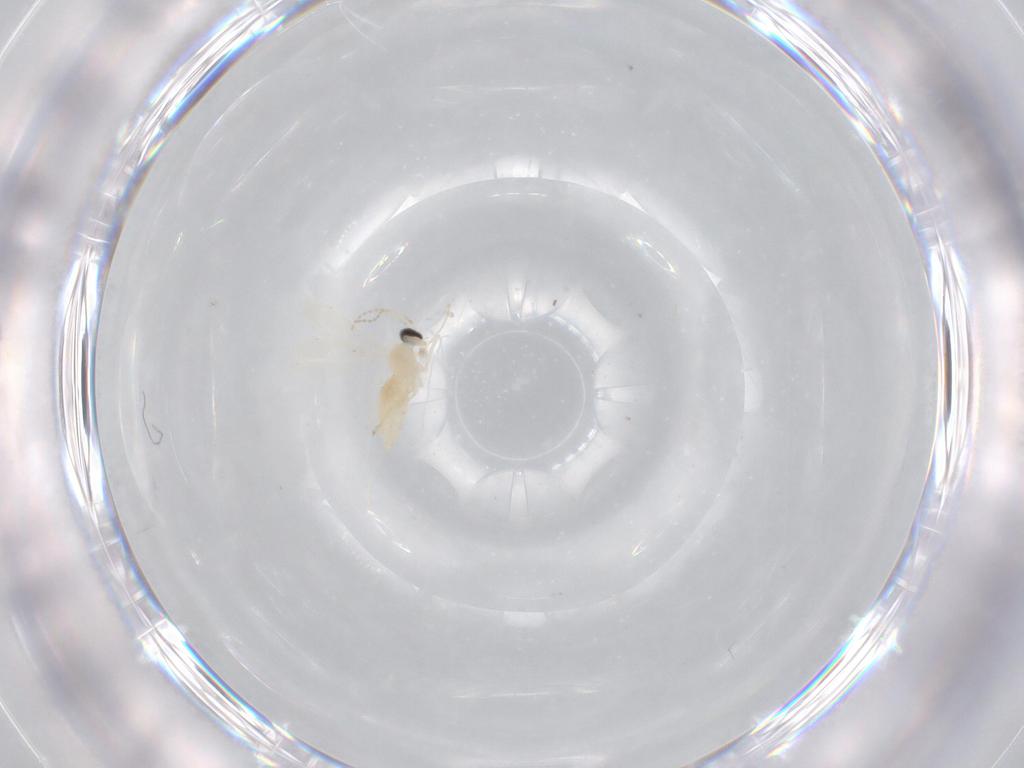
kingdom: Animalia
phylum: Arthropoda
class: Insecta
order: Diptera
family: Cecidomyiidae
